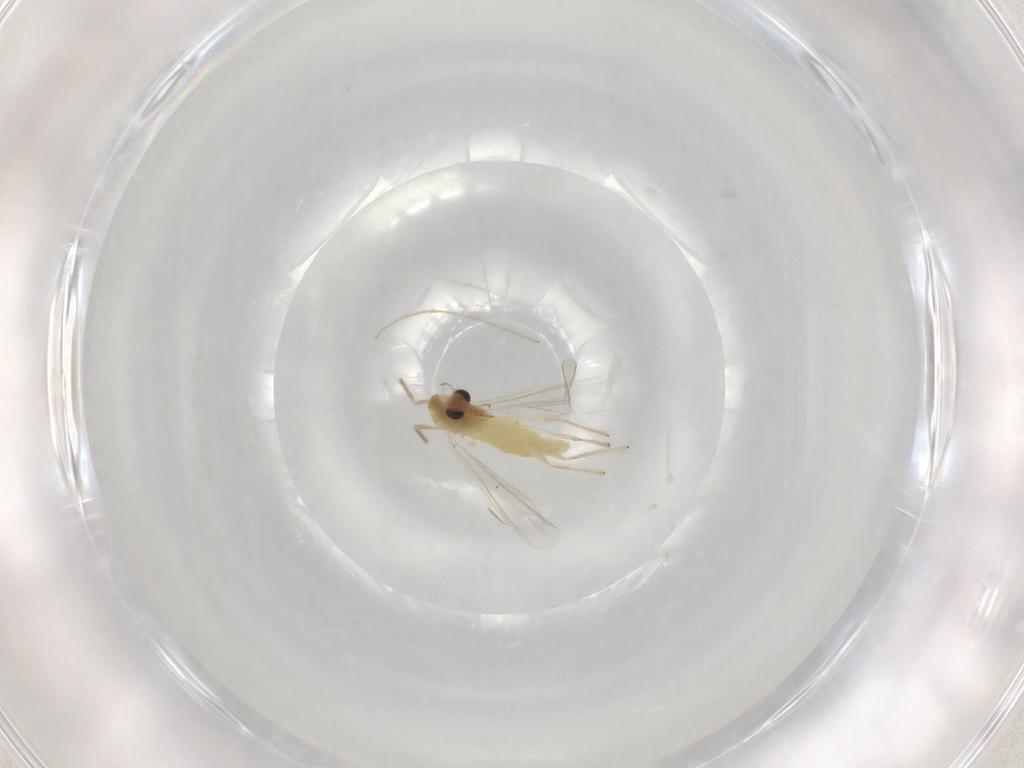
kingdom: Animalia
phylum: Arthropoda
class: Insecta
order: Diptera
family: Chironomidae
